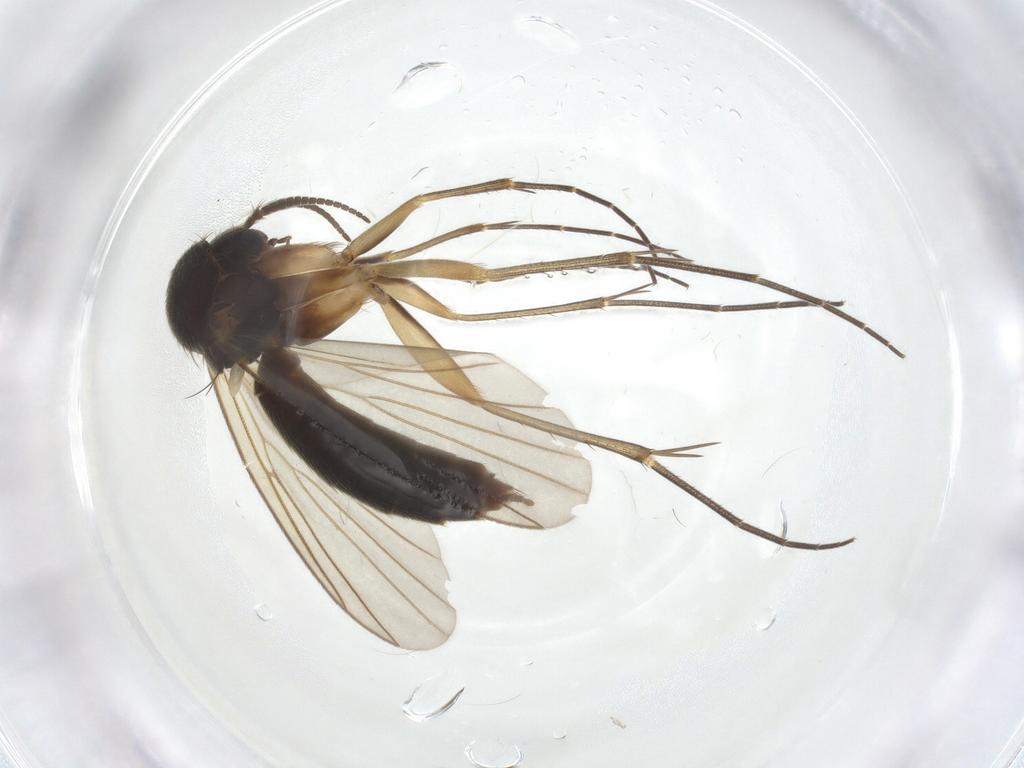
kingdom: Animalia
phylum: Arthropoda
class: Insecta
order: Diptera
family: Mycetophilidae
